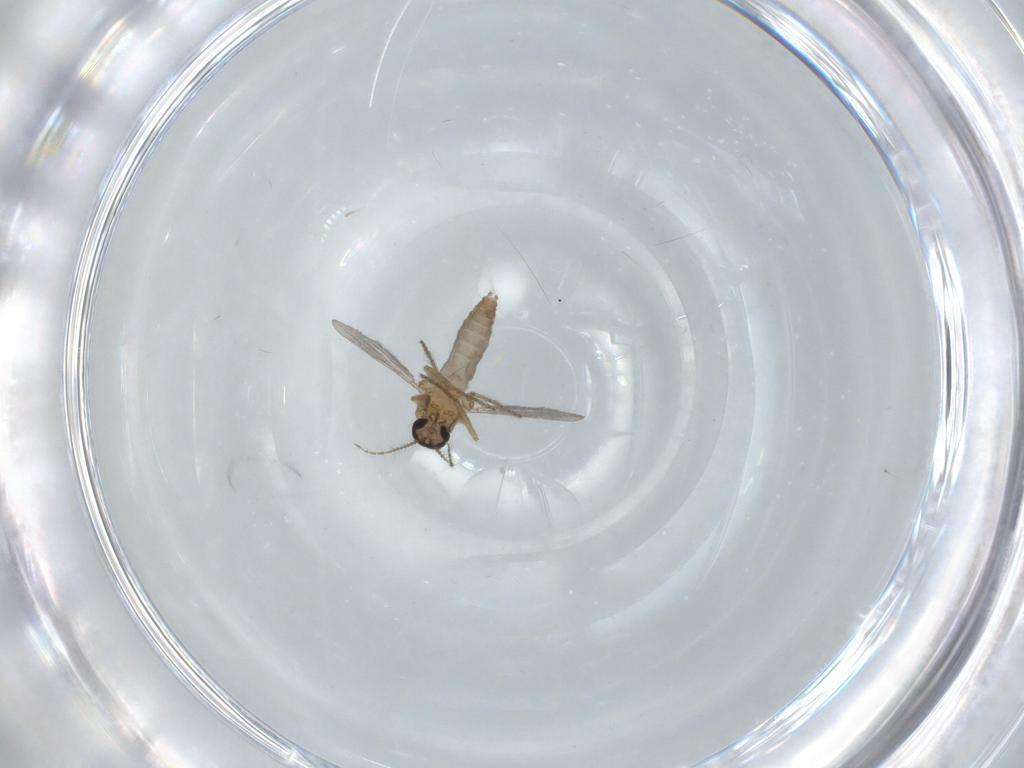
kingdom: Animalia
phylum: Arthropoda
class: Insecta
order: Diptera
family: Ceratopogonidae
